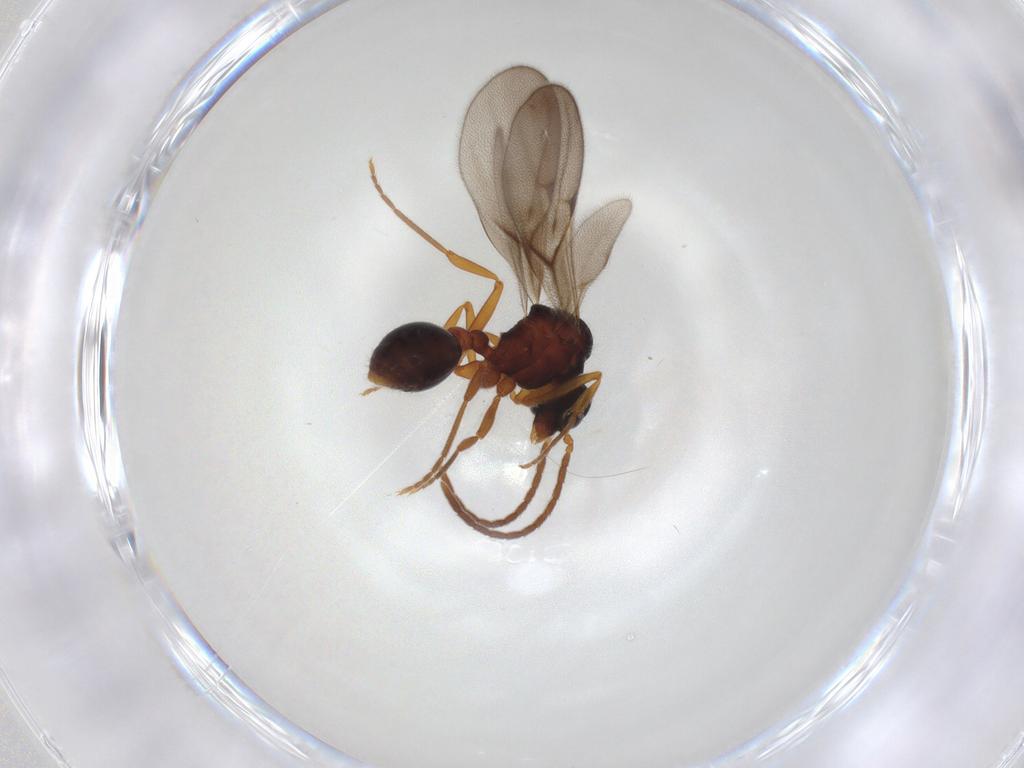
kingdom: Animalia
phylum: Arthropoda
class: Insecta
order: Hymenoptera
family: Formicidae
